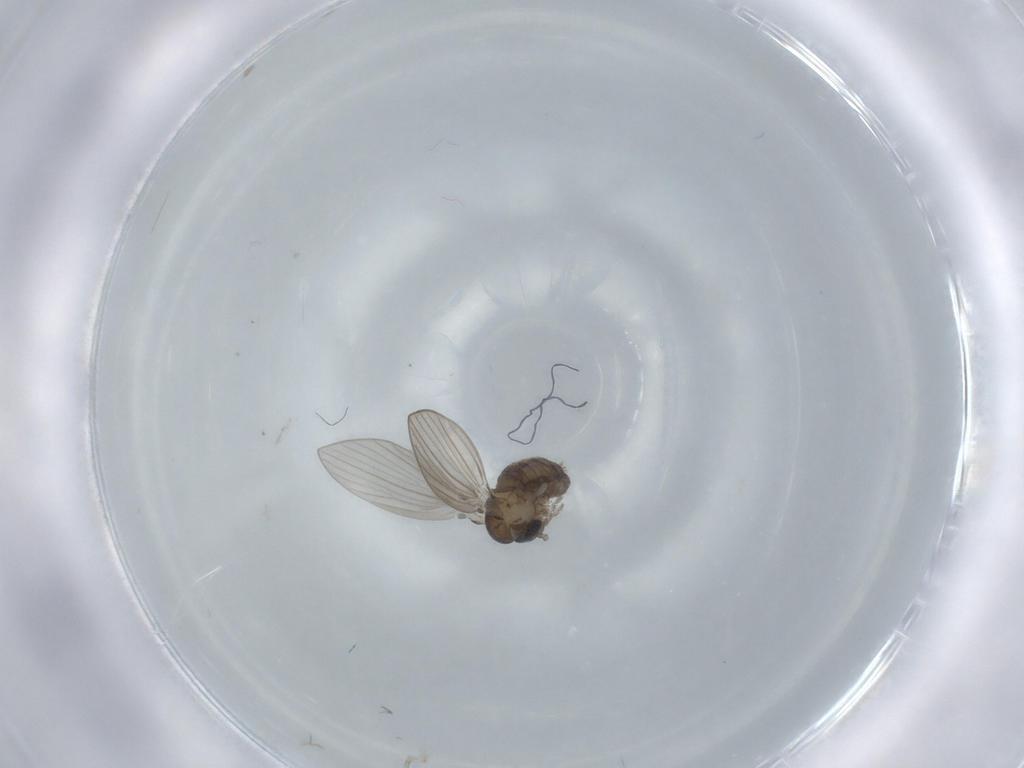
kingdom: Animalia
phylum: Arthropoda
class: Insecta
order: Diptera
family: Psychodidae
